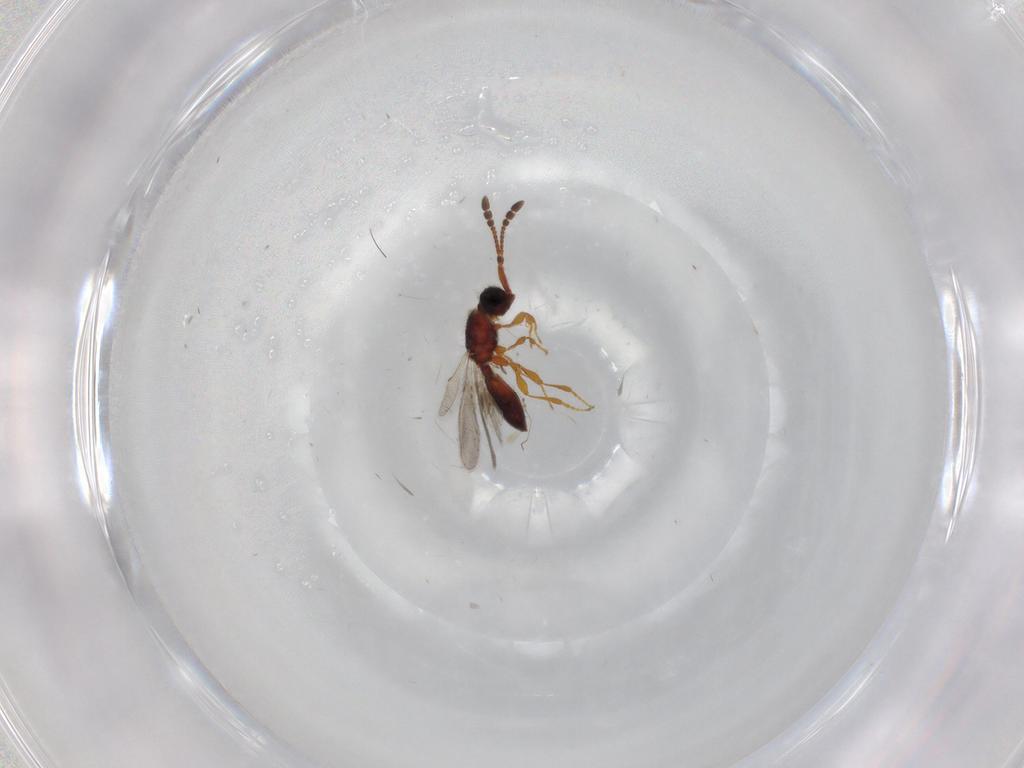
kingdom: Animalia
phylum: Arthropoda
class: Insecta
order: Hymenoptera
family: Diapriidae
